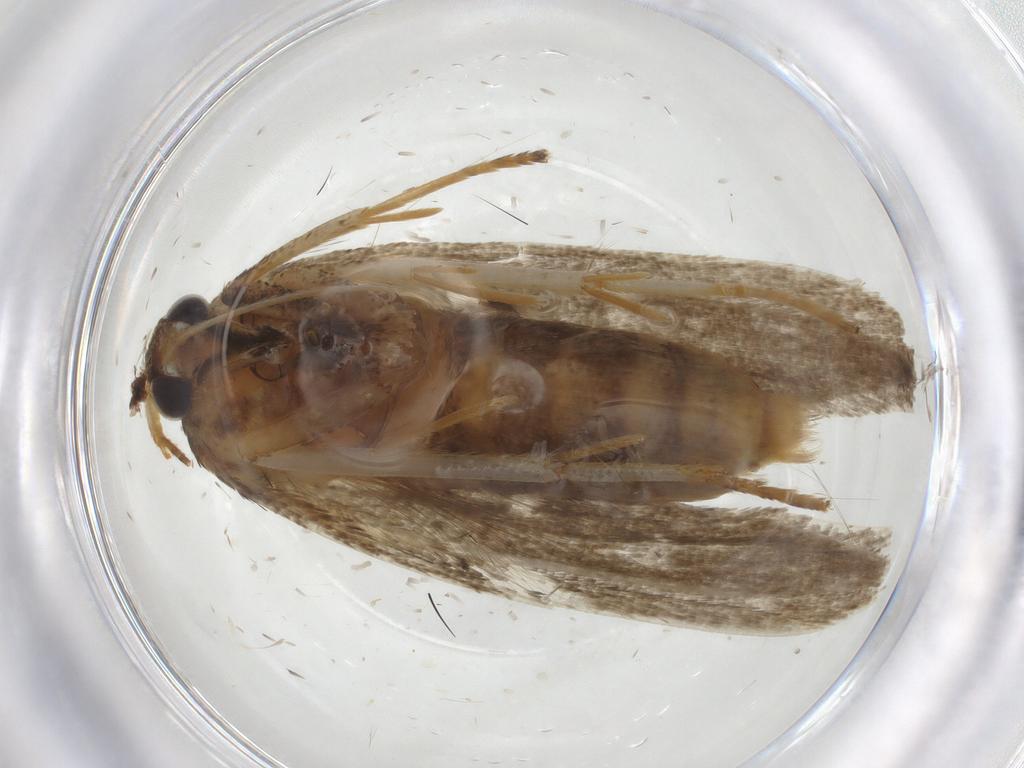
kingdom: Animalia
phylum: Arthropoda
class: Insecta
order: Lepidoptera
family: Blastobasidae
